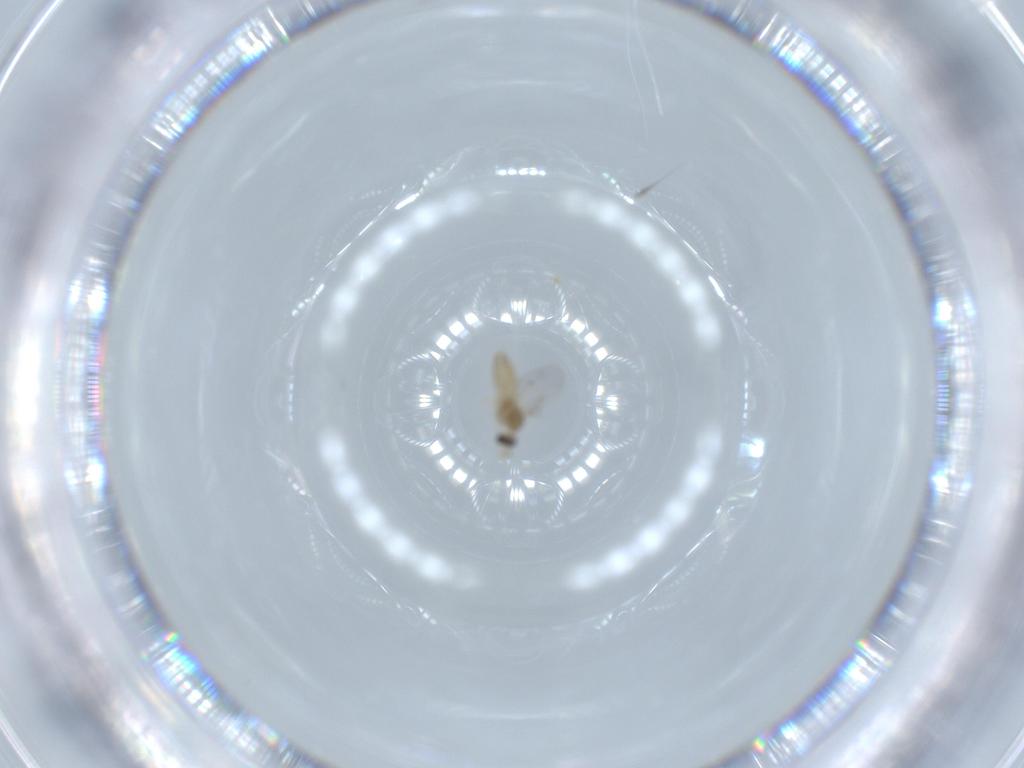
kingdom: Animalia
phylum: Arthropoda
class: Insecta
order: Diptera
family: Cecidomyiidae
